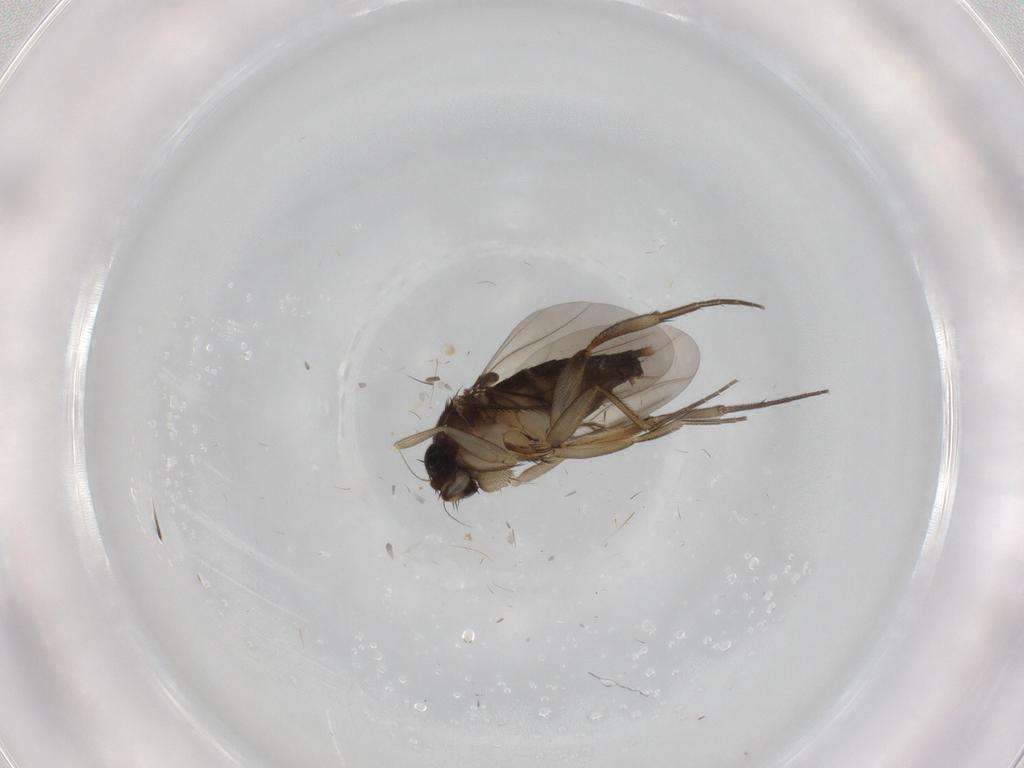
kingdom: Animalia
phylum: Arthropoda
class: Insecta
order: Diptera
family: Phoridae
